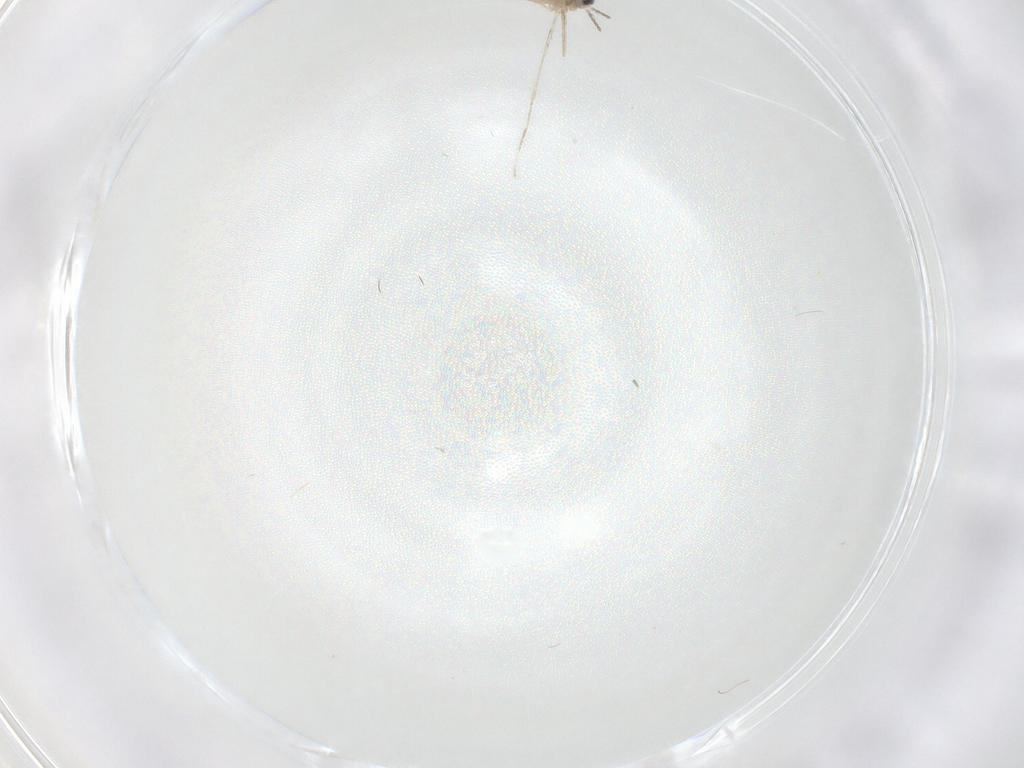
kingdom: Animalia
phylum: Arthropoda
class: Insecta
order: Diptera
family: Cecidomyiidae
